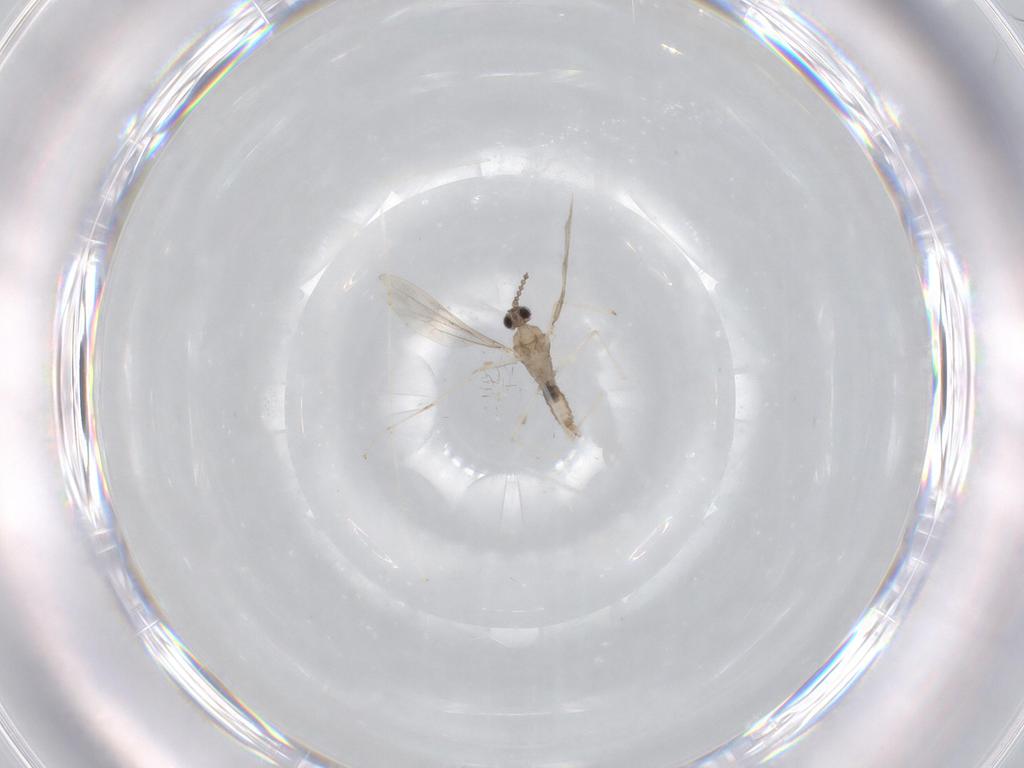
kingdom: Animalia
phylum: Arthropoda
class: Insecta
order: Diptera
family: Cecidomyiidae
